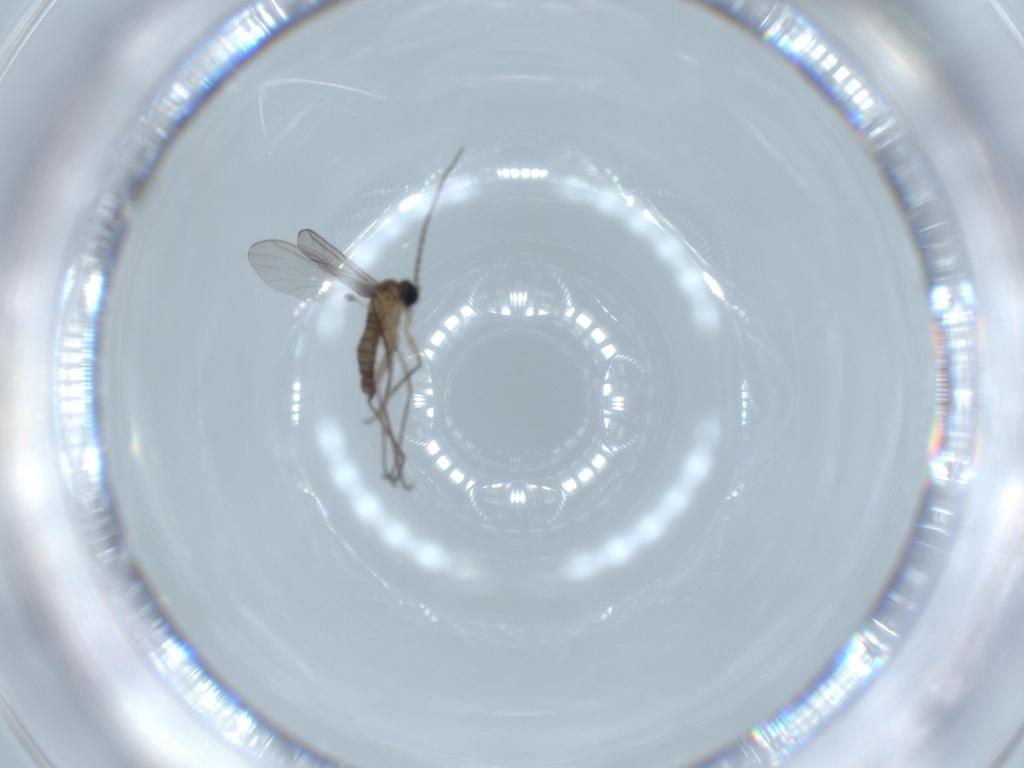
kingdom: Animalia
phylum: Arthropoda
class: Insecta
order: Diptera
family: Sciaridae
